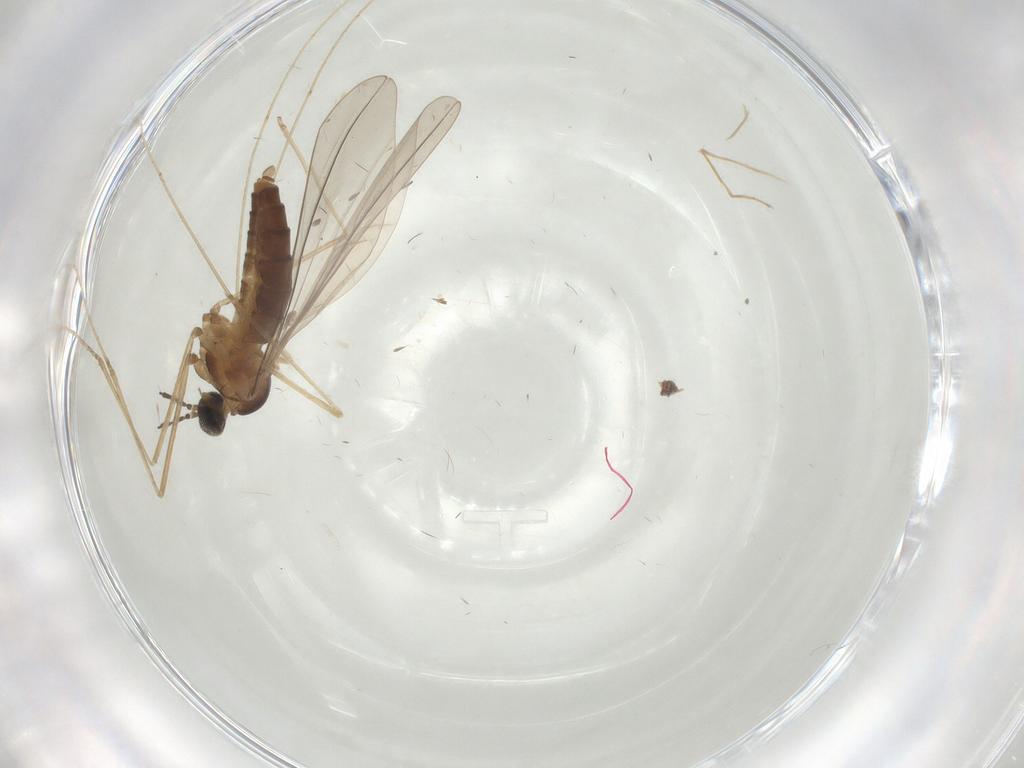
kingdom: Animalia
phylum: Arthropoda
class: Insecta
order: Diptera
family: Cecidomyiidae
